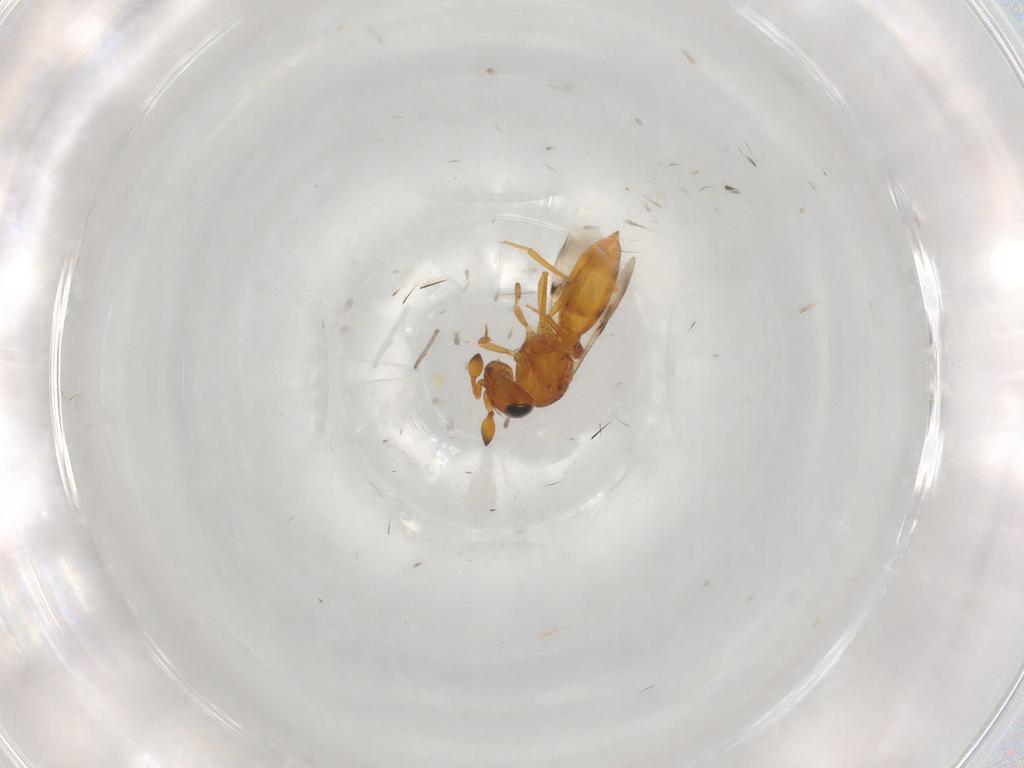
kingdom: Animalia
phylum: Arthropoda
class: Insecta
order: Hymenoptera
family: Scelionidae
